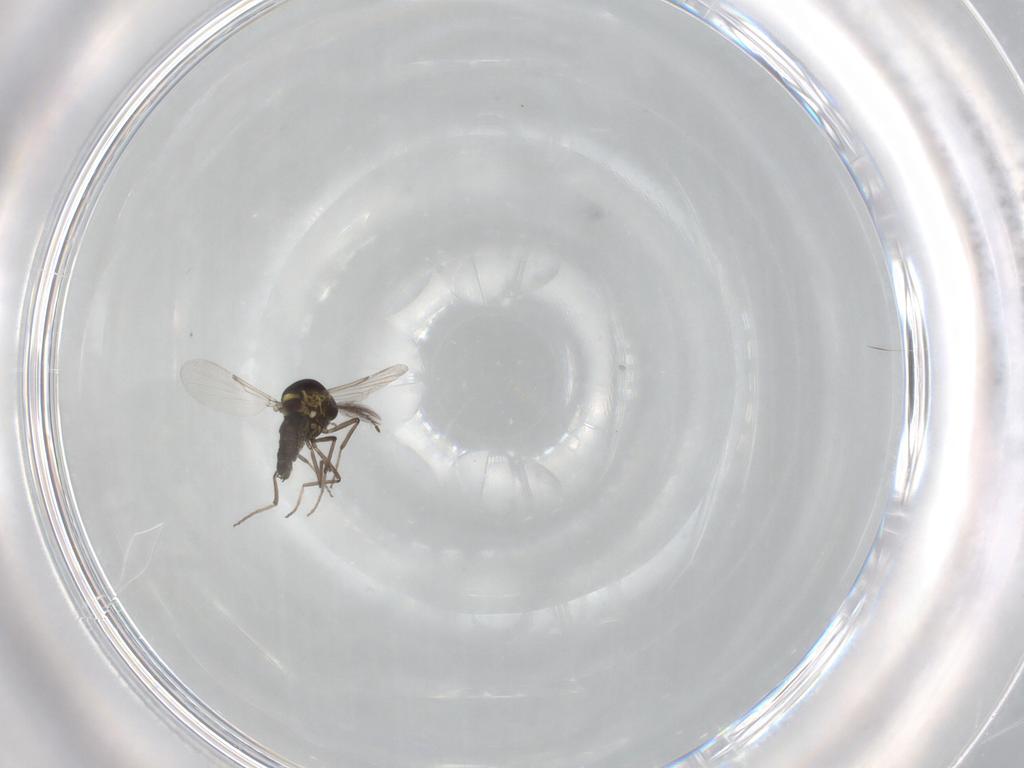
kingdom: Animalia
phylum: Arthropoda
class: Insecta
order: Diptera
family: Ceratopogonidae
